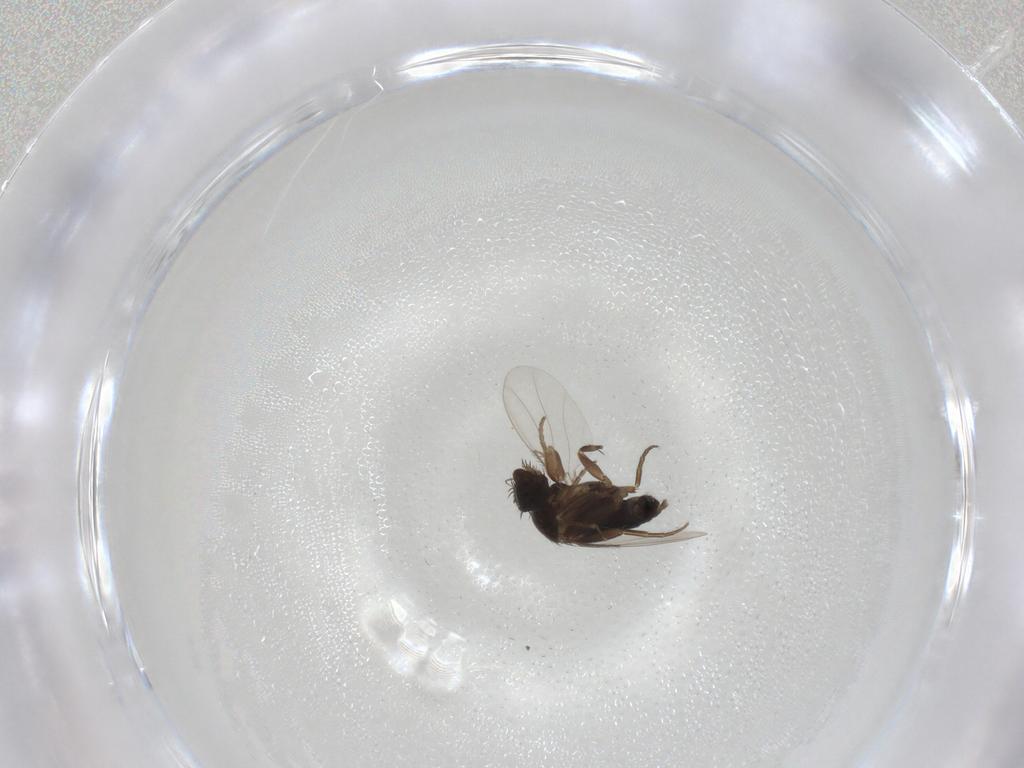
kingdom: Animalia
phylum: Arthropoda
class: Insecta
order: Diptera
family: Phoridae
